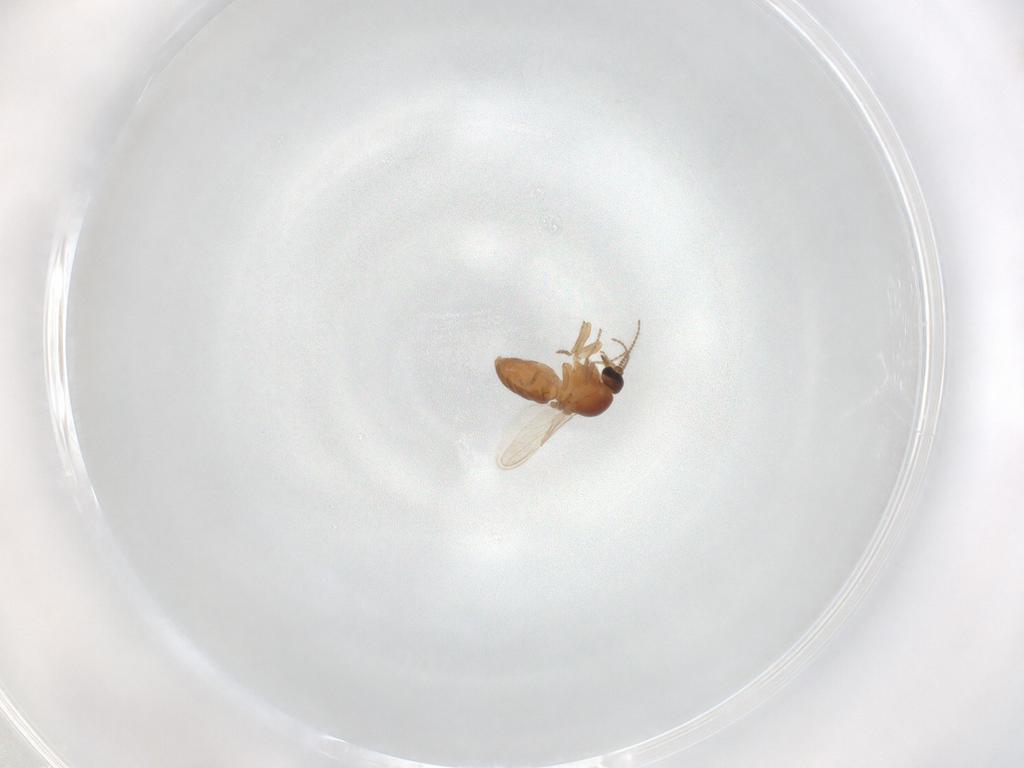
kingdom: Animalia
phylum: Arthropoda
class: Insecta
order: Diptera
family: Ceratopogonidae
